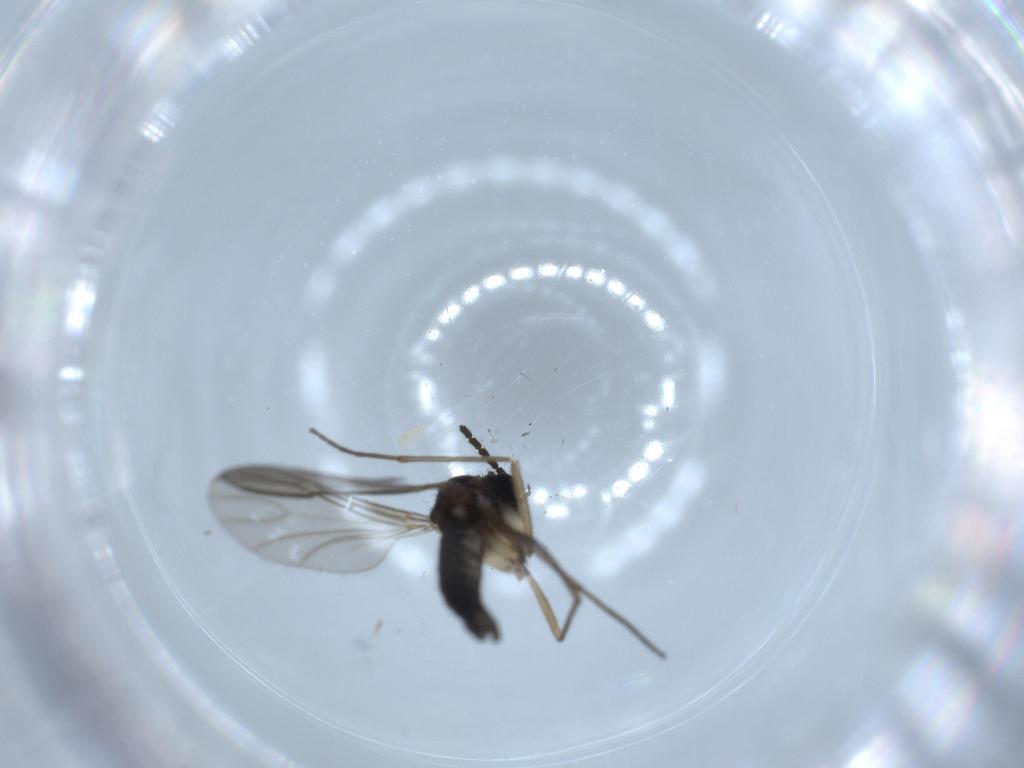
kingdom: Animalia
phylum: Arthropoda
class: Insecta
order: Diptera
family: Sciaridae
